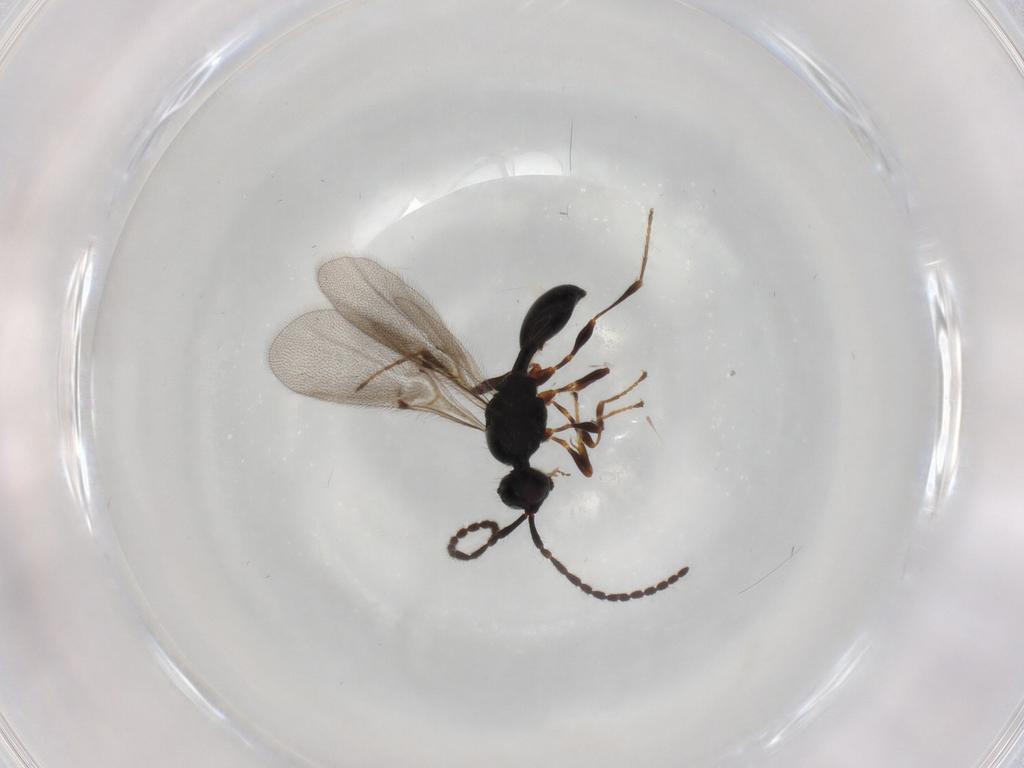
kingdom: Animalia
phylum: Arthropoda
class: Insecta
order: Hymenoptera
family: Diapriidae
